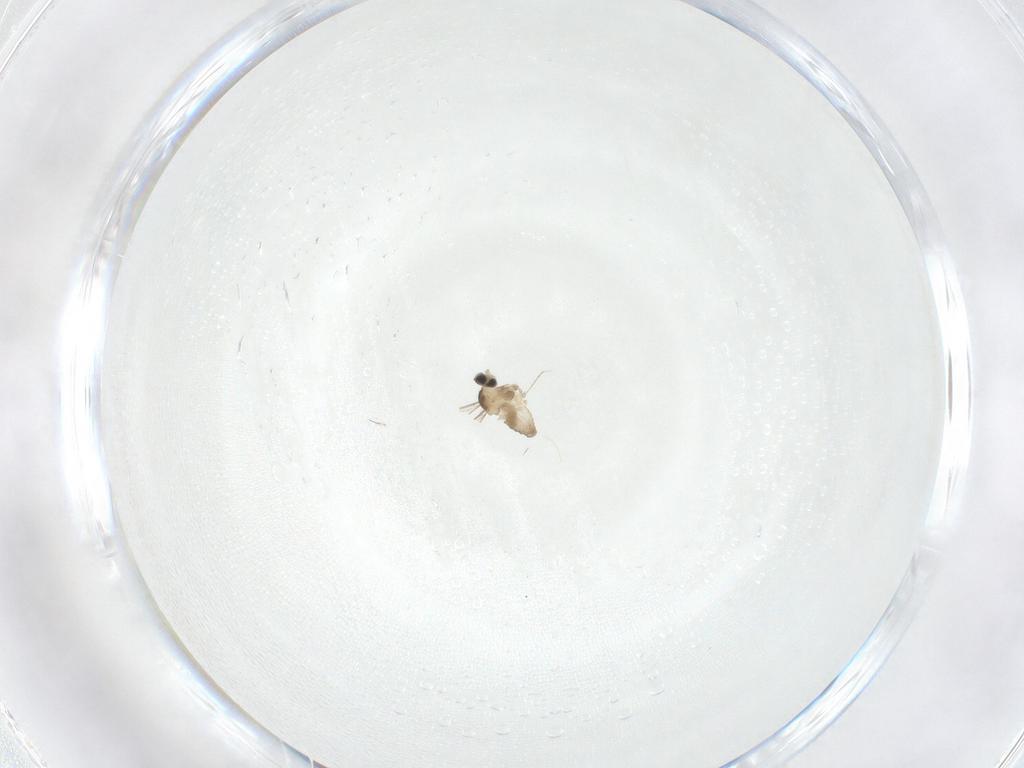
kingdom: Animalia
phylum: Arthropoda
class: Insecta
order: Diptera
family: Cecidomyiidae
